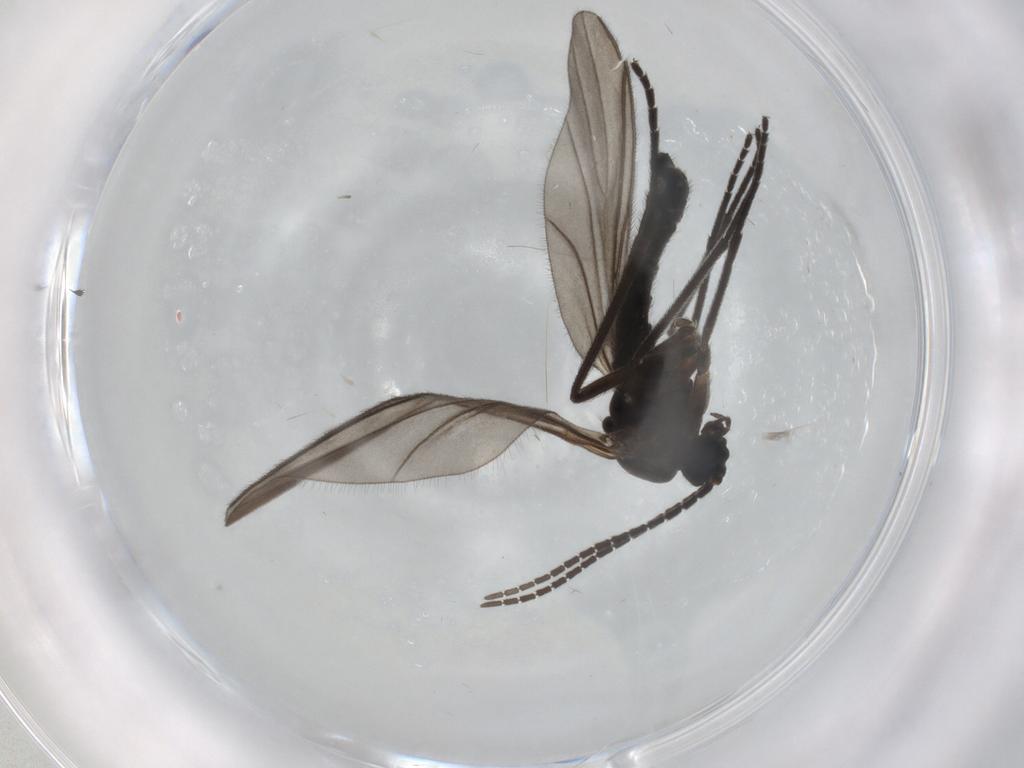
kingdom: Animalia
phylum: Arthropoda
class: Insecta
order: Diptera
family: Sciaridae
